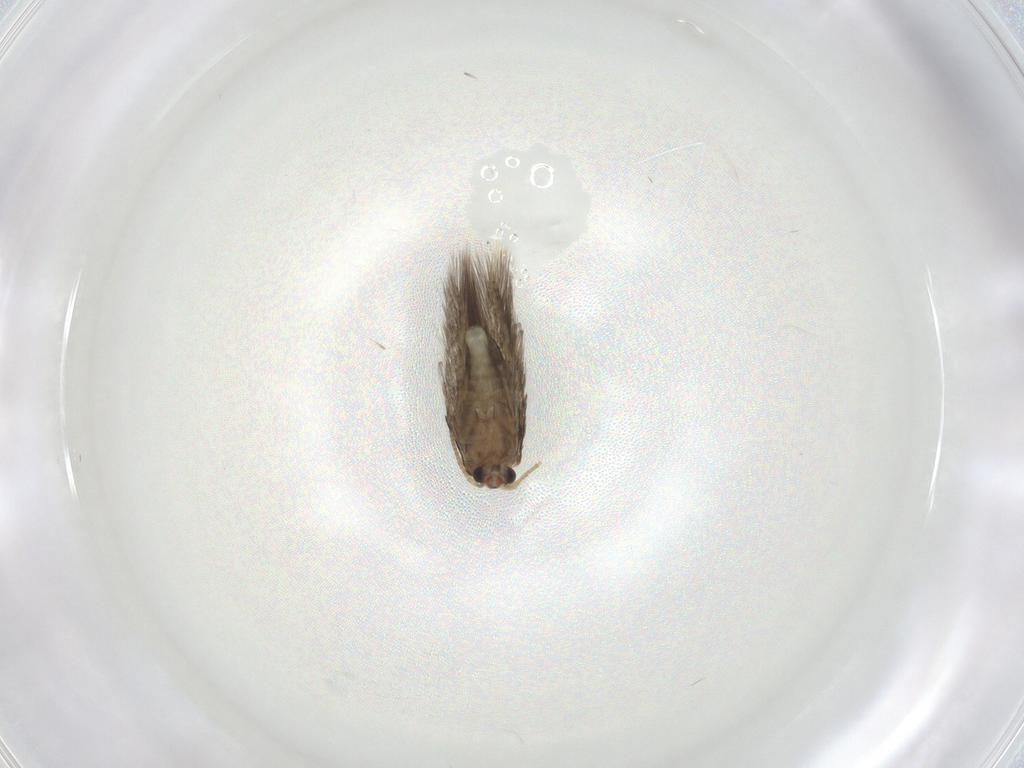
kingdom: Animalia
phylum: Arthropoda
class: Insecta
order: Lepidoptera
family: Nepticulidae
